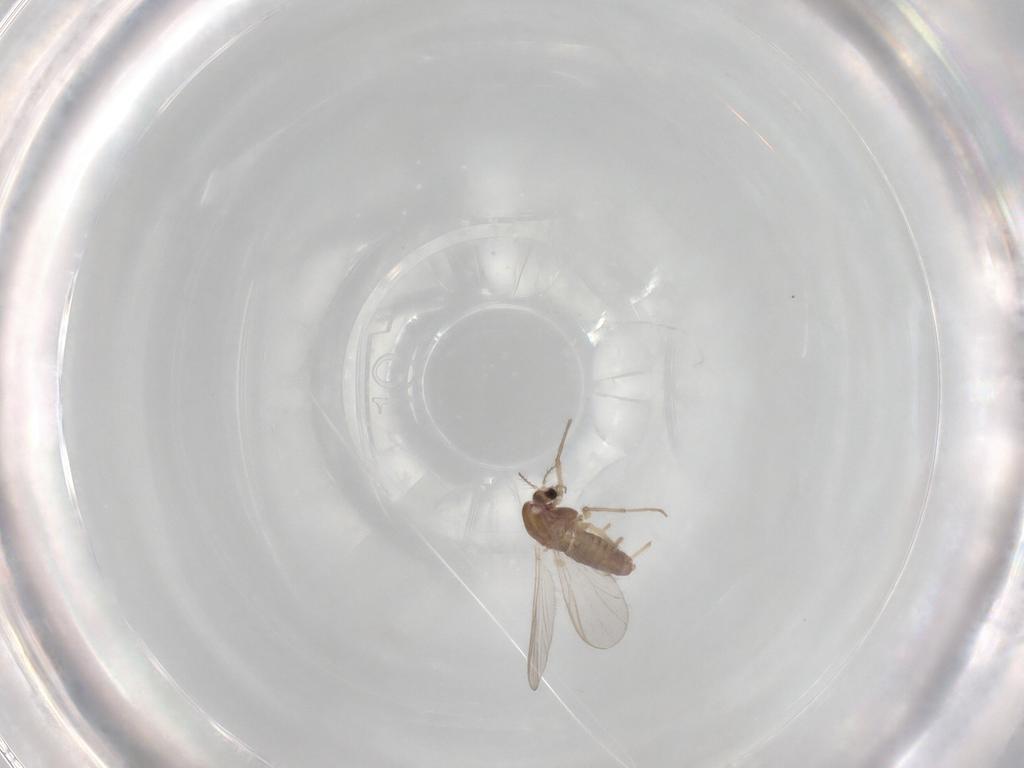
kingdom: Animalia
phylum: Arthropoda
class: Insecta
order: Diptera
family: Chironomidae
